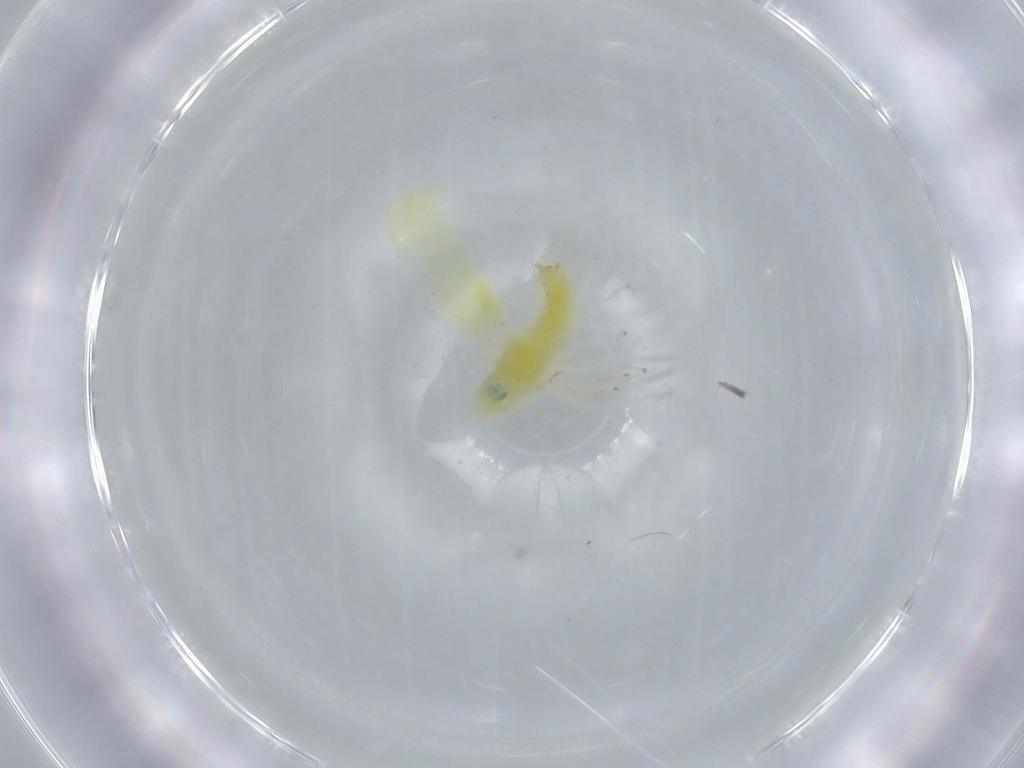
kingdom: Animalia
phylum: Arthropoda
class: Insecta
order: Hemiptera
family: Cicadellidae
